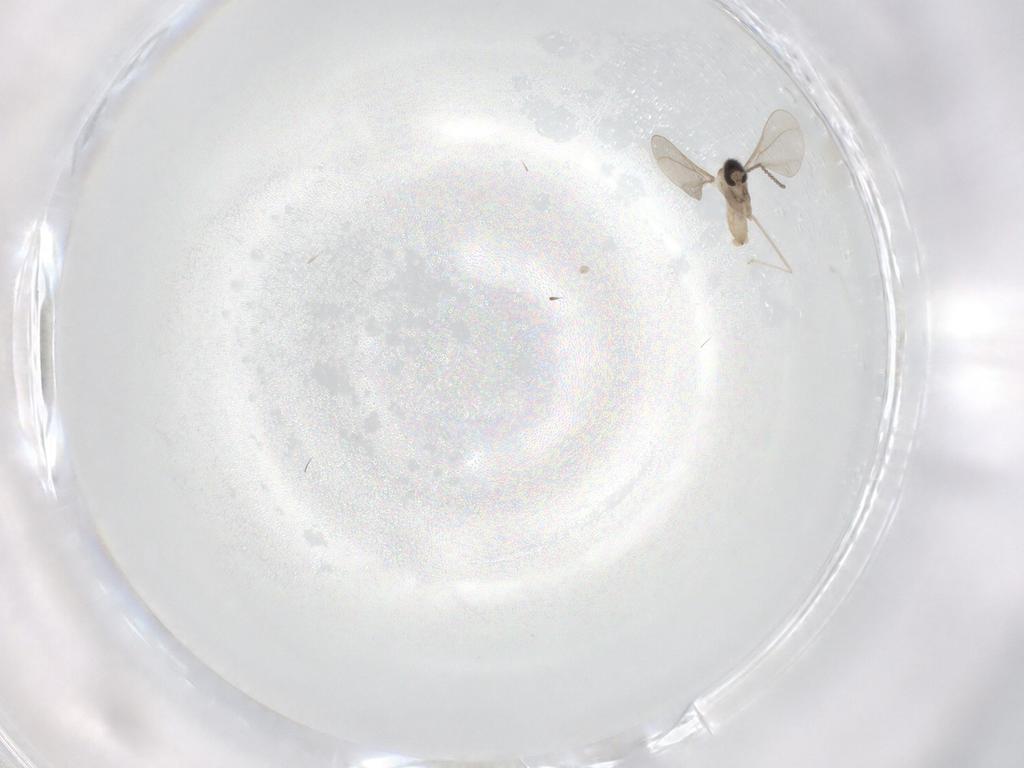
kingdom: Animalia
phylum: Arthropoda
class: Insecta
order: Diptera
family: Cecidomyiidae
